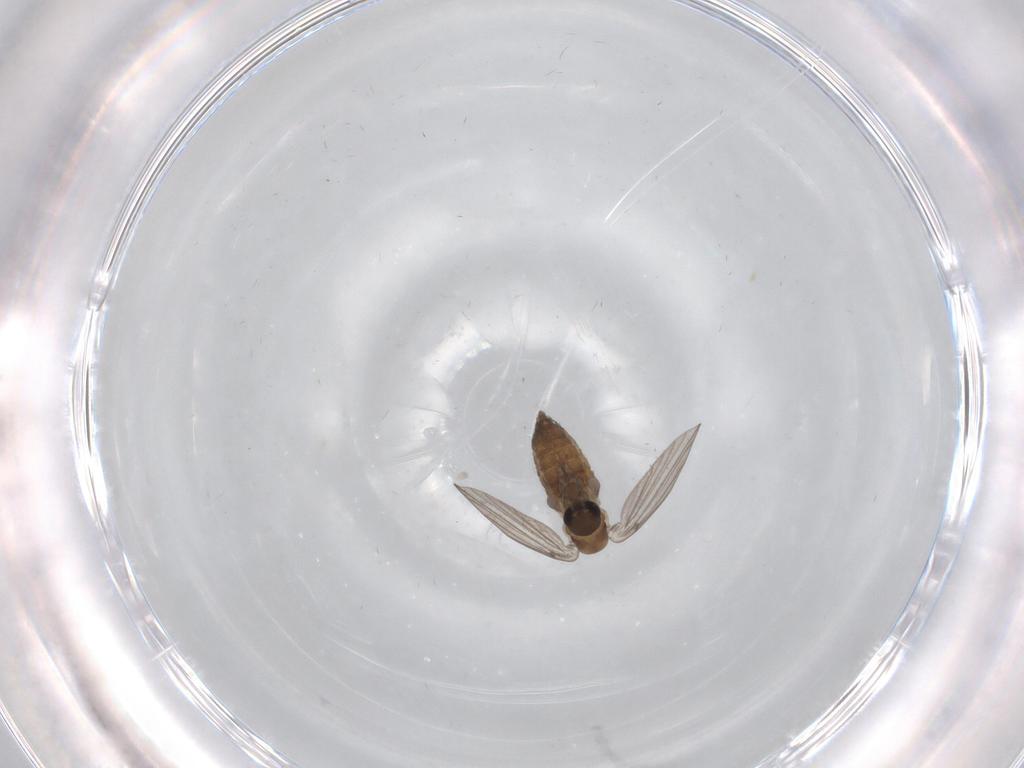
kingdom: Animalia
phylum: Arthropoda
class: Insecta
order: Diptera
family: Psychodidae
